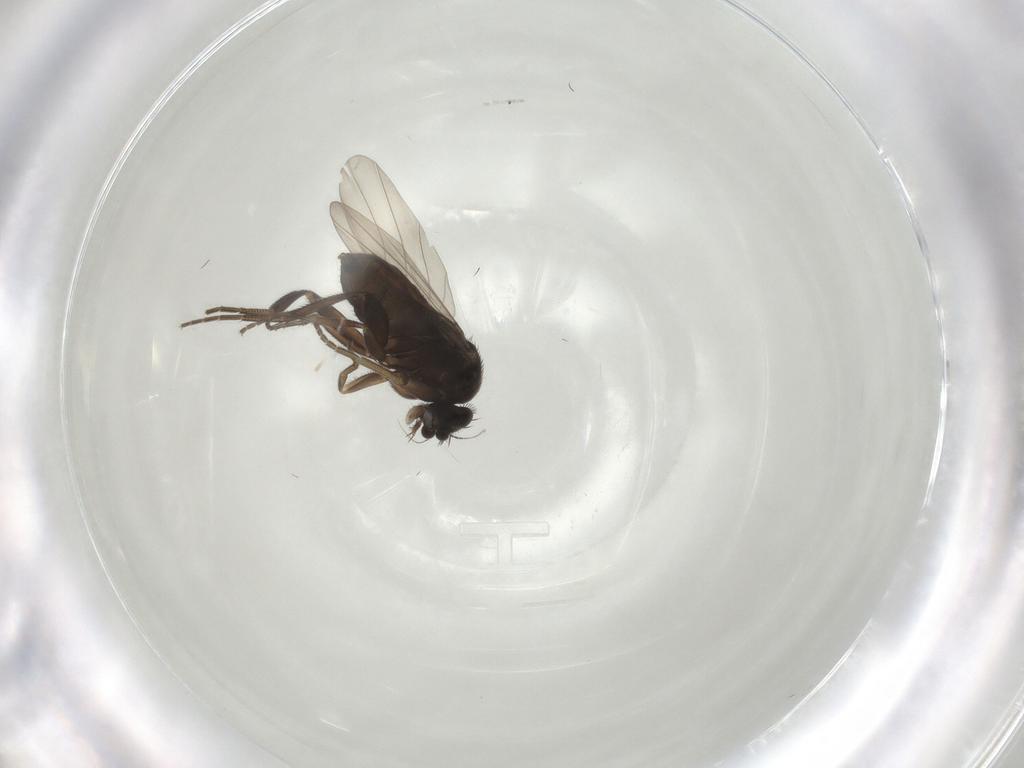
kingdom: Animalia
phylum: Arthropoda
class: Insecta
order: Diptera
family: Phoridae
